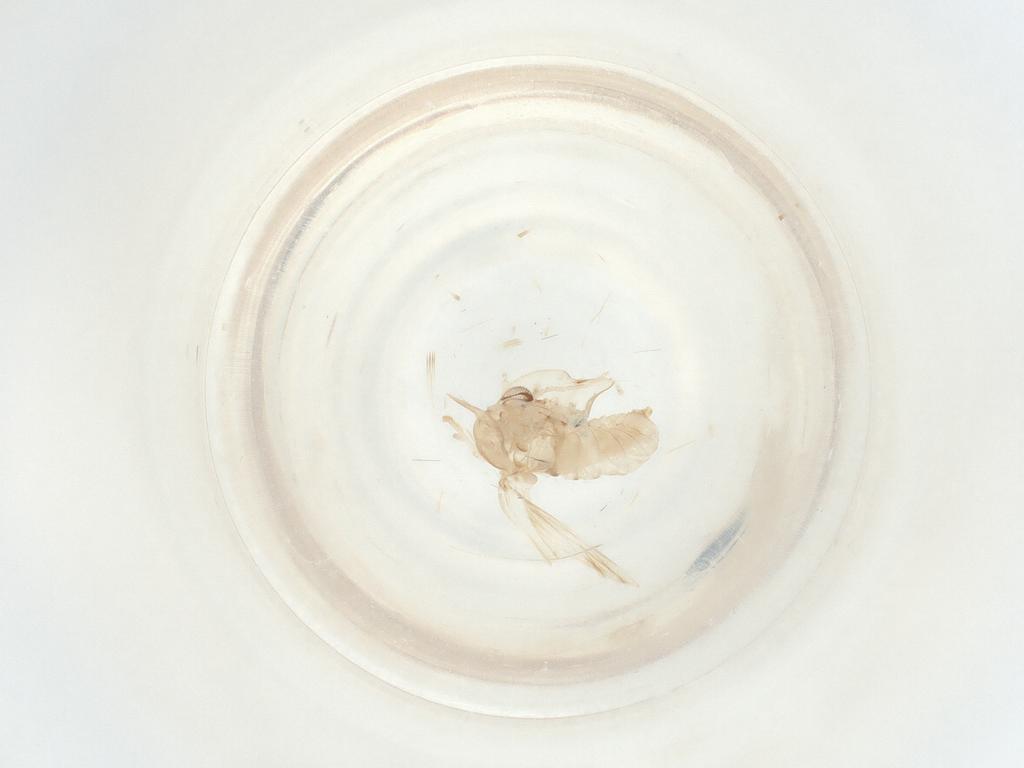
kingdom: Animalia
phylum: Arthropoda
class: Insecta
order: Diptera
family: Psychodidae
